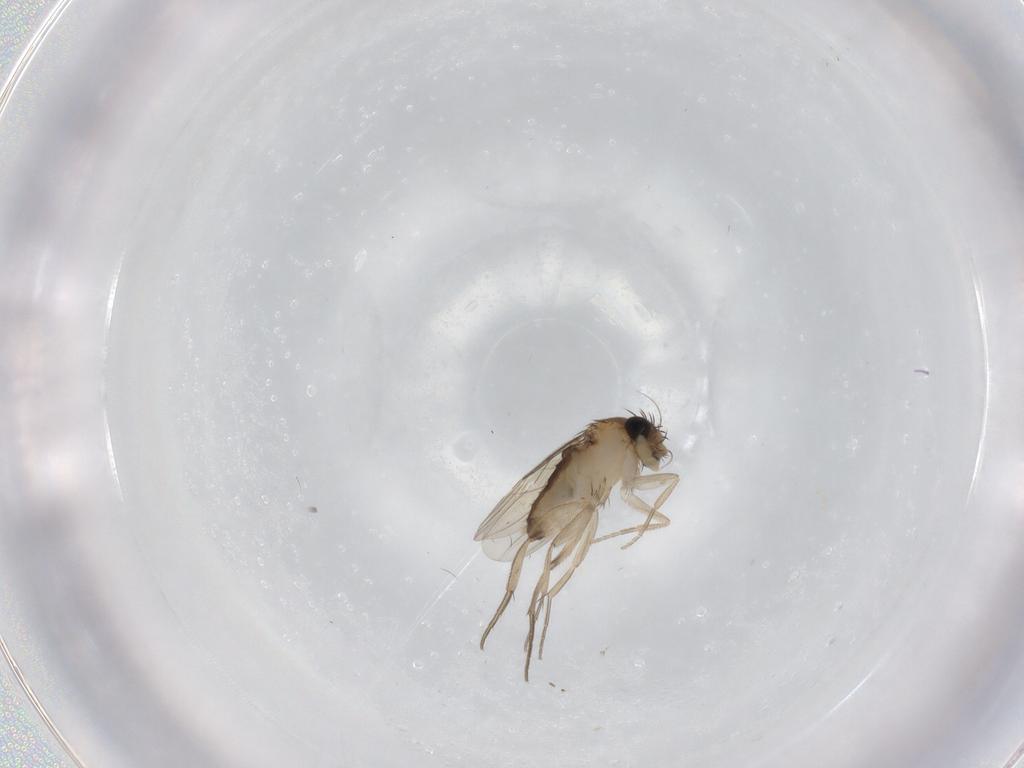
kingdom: Animalia
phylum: Arthropoda
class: Insecta
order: Diptera
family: Phoridae
